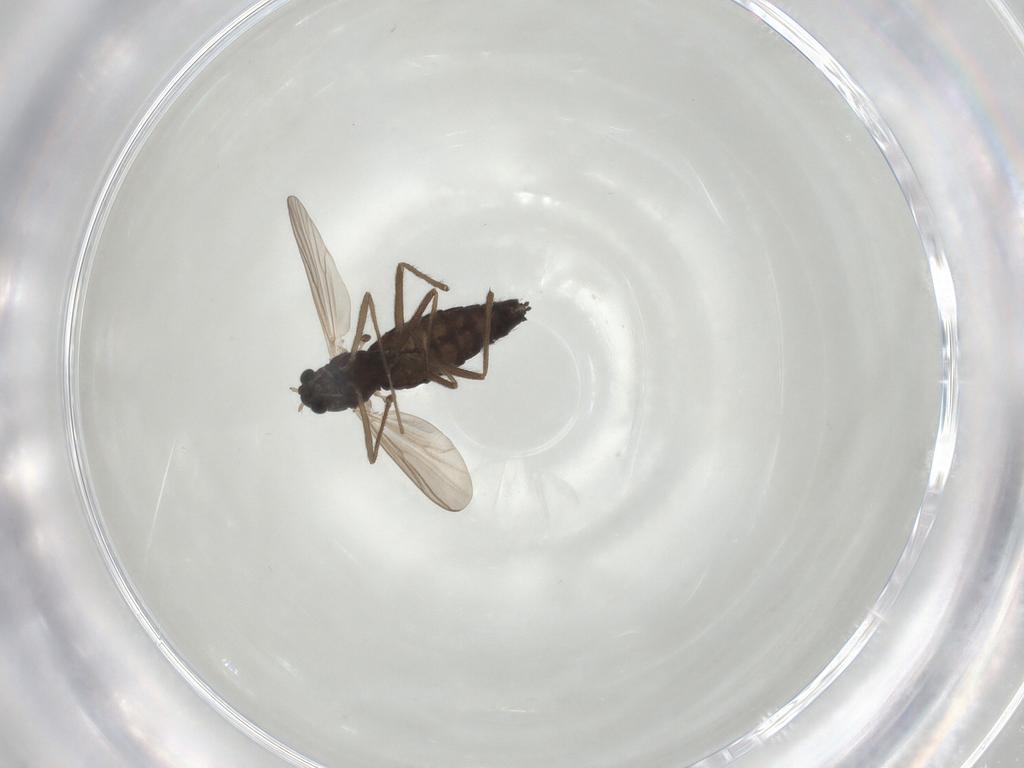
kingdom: Animalia
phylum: Arthropoda
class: Insecta
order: Diptera
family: Chironomidae
